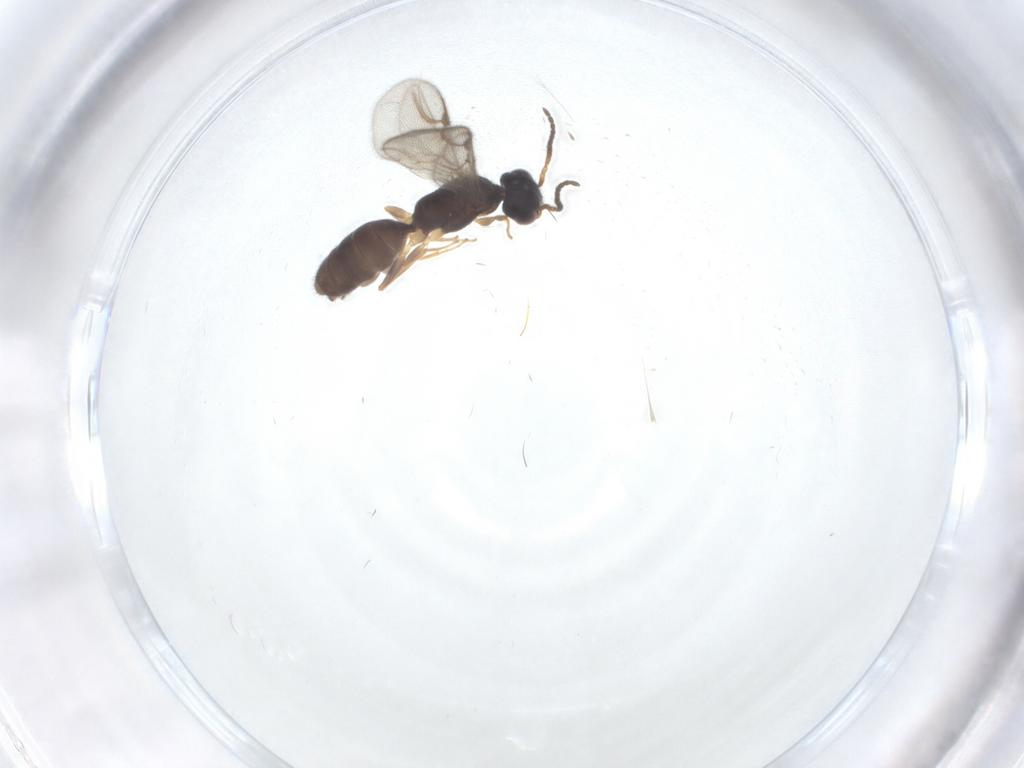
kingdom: Animalia
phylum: Arthropoda
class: Insecta
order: Hymenoptera
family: Bethylidae
